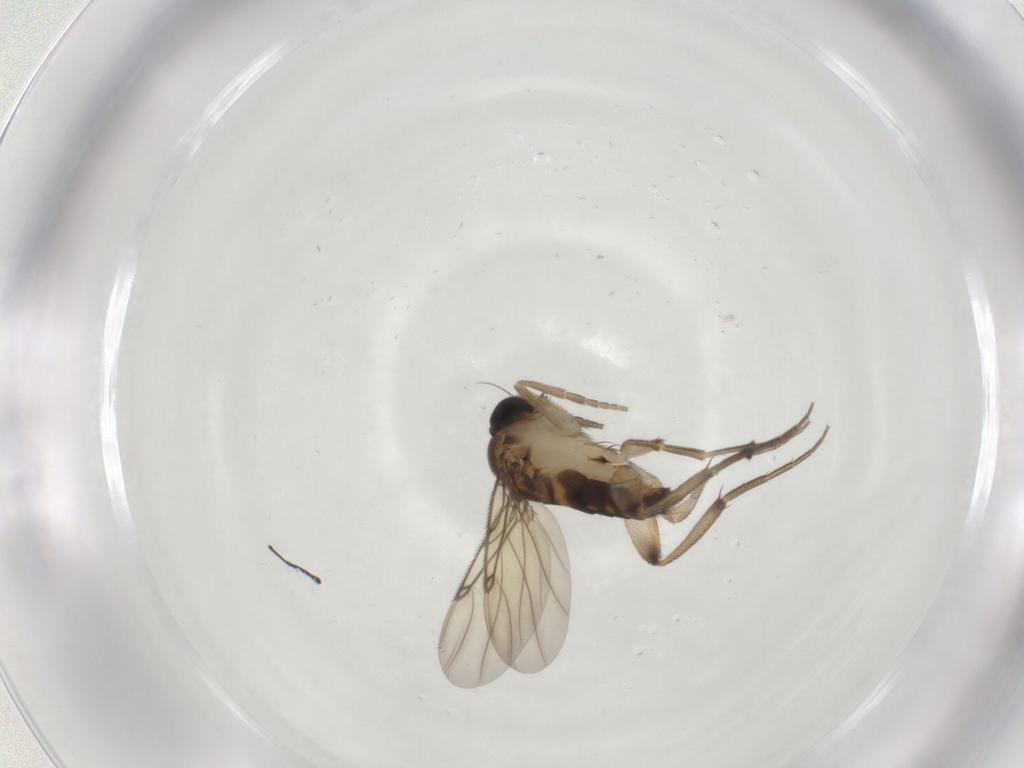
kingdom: Animalia
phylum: Arthropoda
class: Insecta
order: Diptera
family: Phoridae
